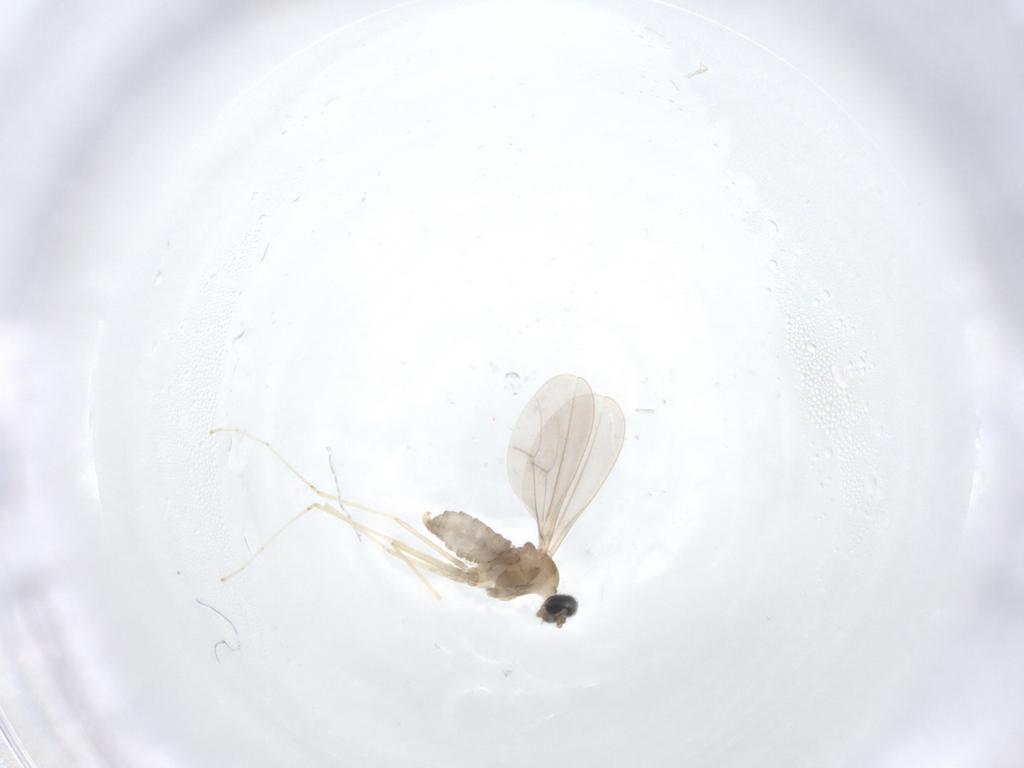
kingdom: Animalia
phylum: Arthropoda
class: Insecta
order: Diptera
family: Cecidomyiidae
